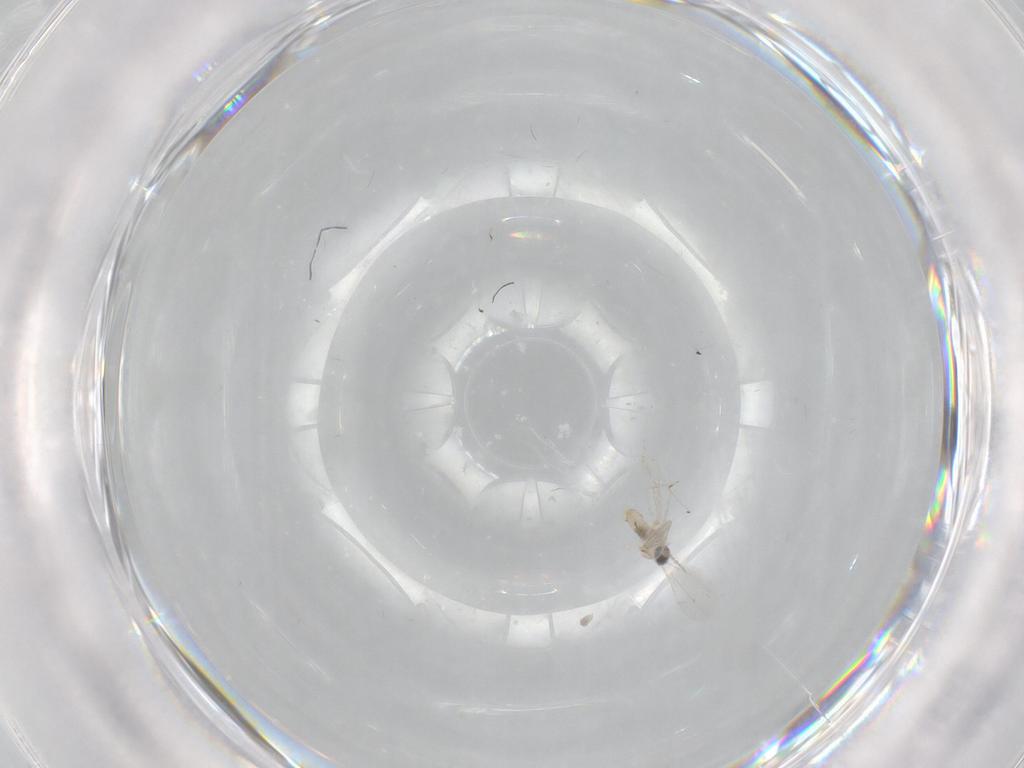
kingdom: Animalia
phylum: Arthropoda
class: Insecta
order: Diptera
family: Cecidomyiidae
